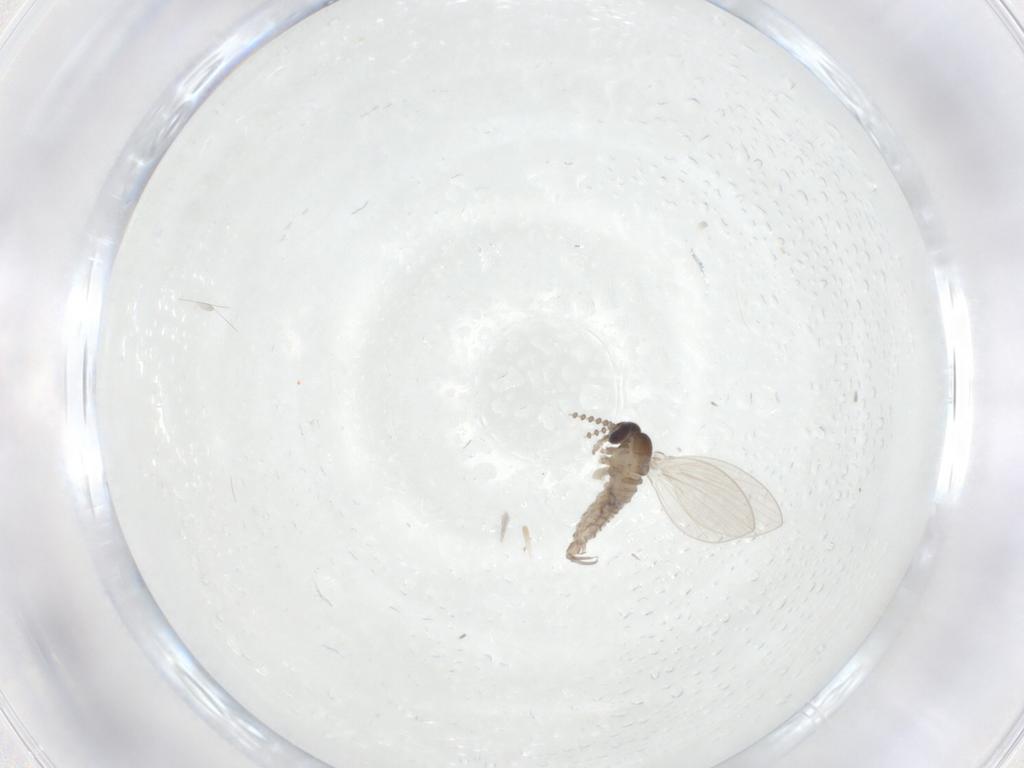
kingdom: Animalia
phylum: Arthropoda
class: Insecta
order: Diptera
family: Psychodidae
